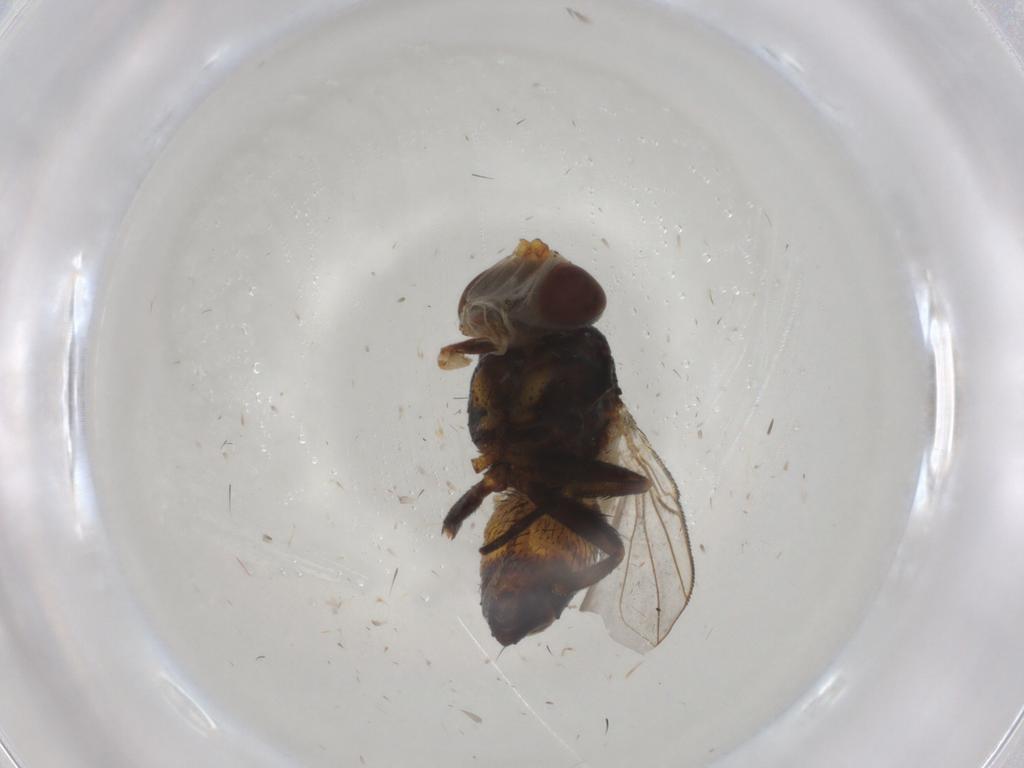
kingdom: Animalia
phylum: Arthropoda
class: Insecta
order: Diptera
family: Glossinidae
